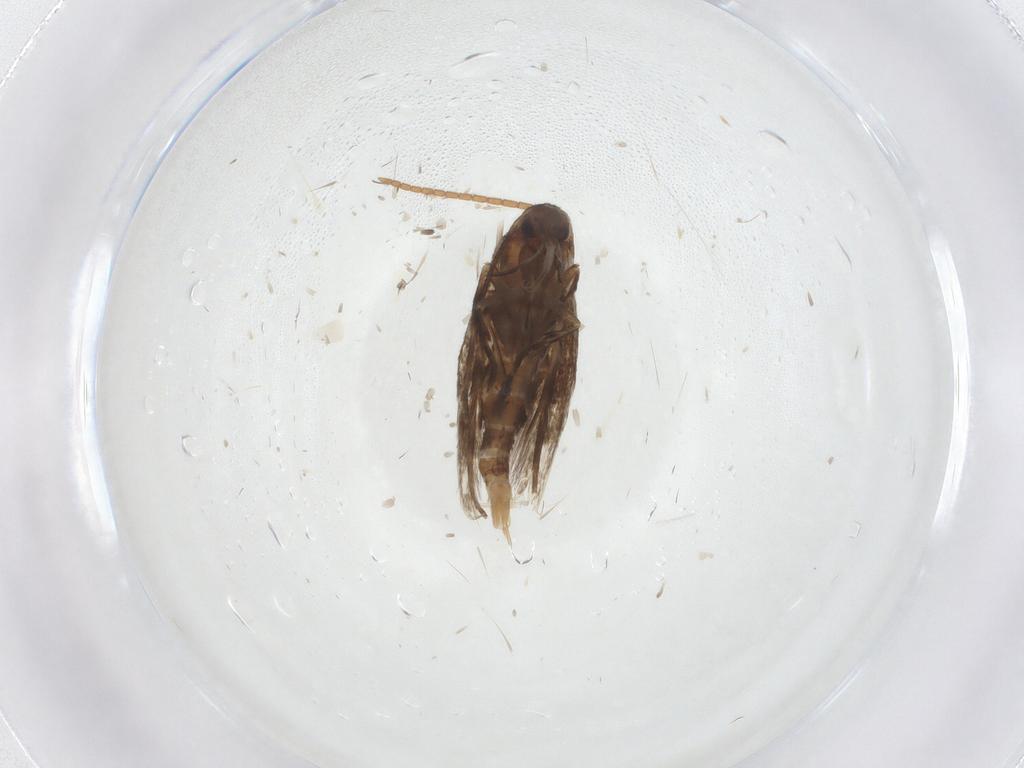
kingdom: Animalia
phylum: Arthropoda
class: Insecta
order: Lepidoptera
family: Elachistidae
